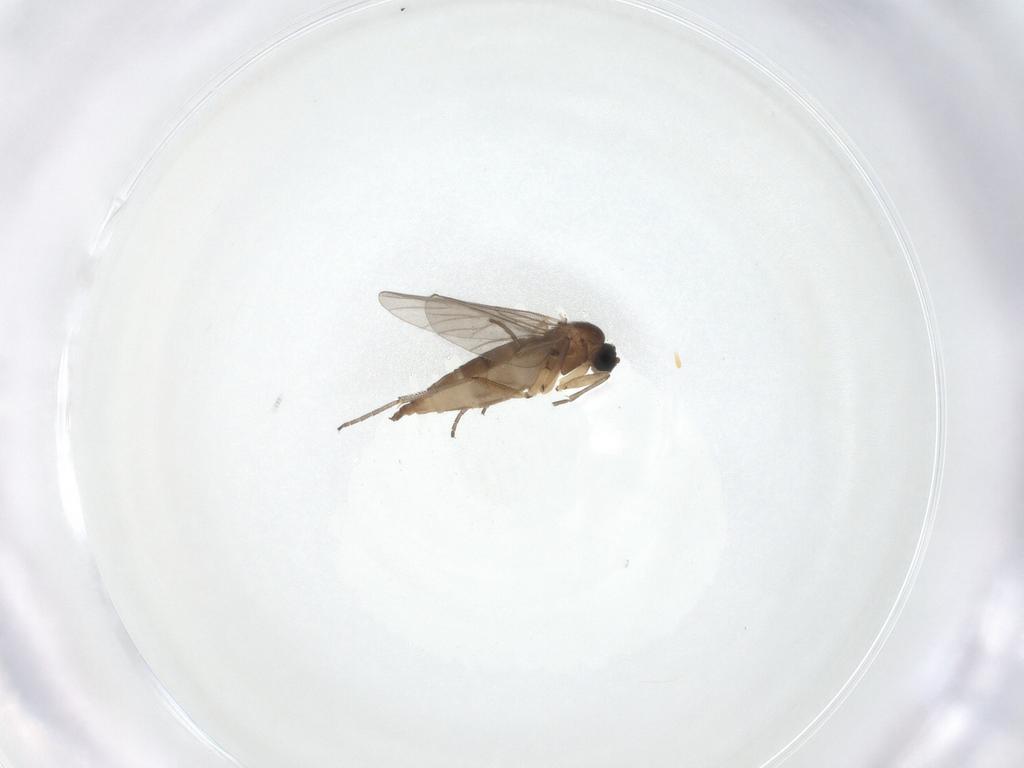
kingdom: Animalia
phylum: Arthropoda
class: Insecta
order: Diptera
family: Sciaridae
